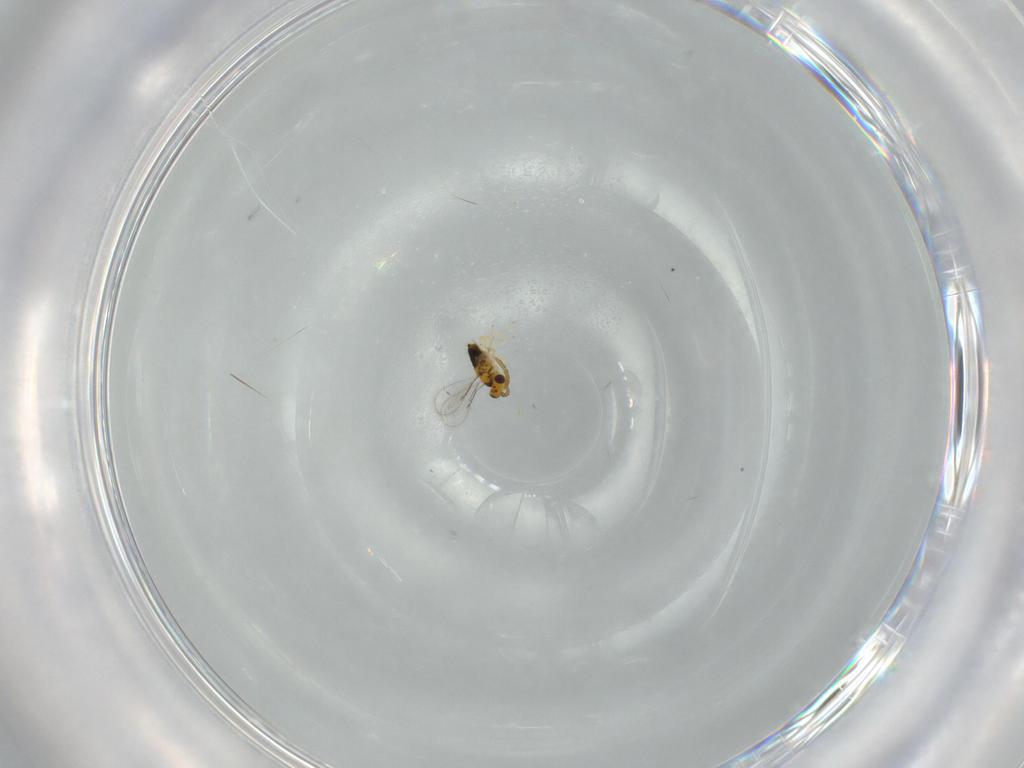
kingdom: Animalia
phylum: Arthropoda
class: Insecta
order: Hymenoptera
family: Aphelinidae
